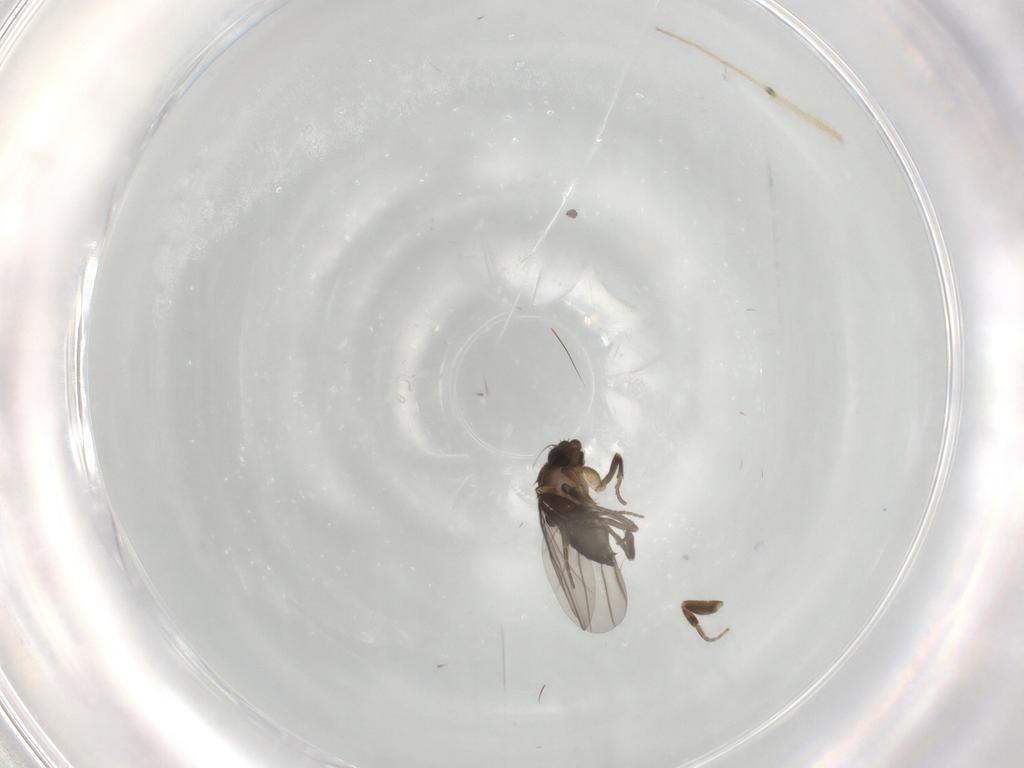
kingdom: Animalia
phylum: Arthropoda
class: Insecta
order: Diptera
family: Chironomidae
